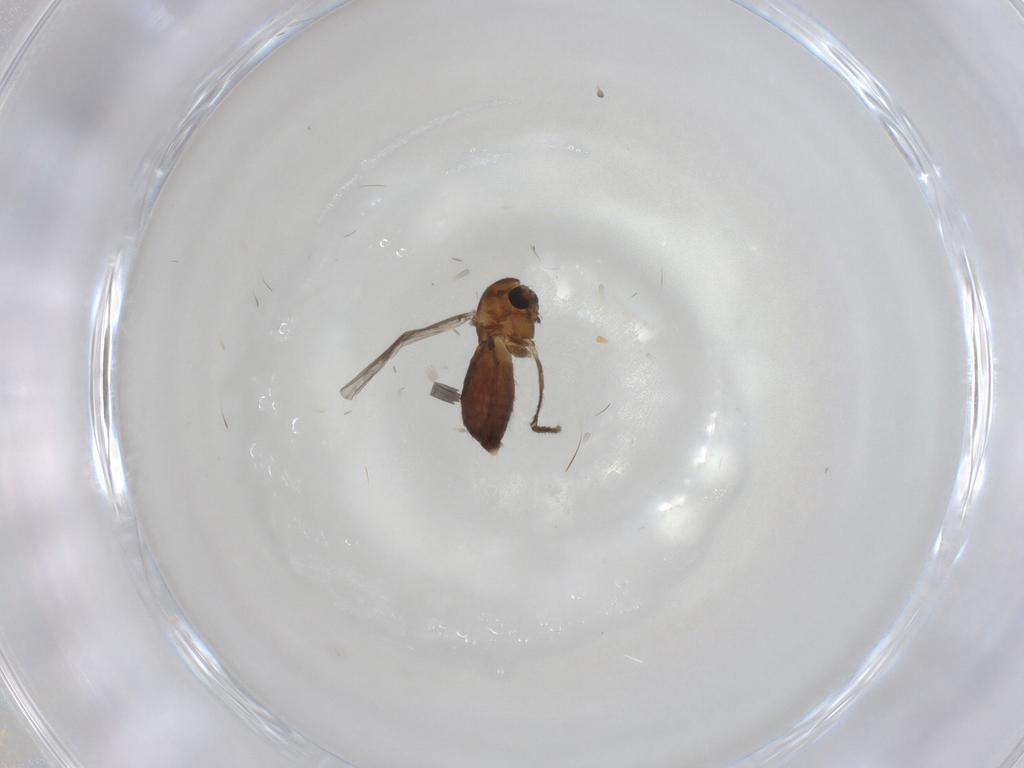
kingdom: Animalia
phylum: Arthropoda
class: Insecta
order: Diptera
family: Chironomidae
